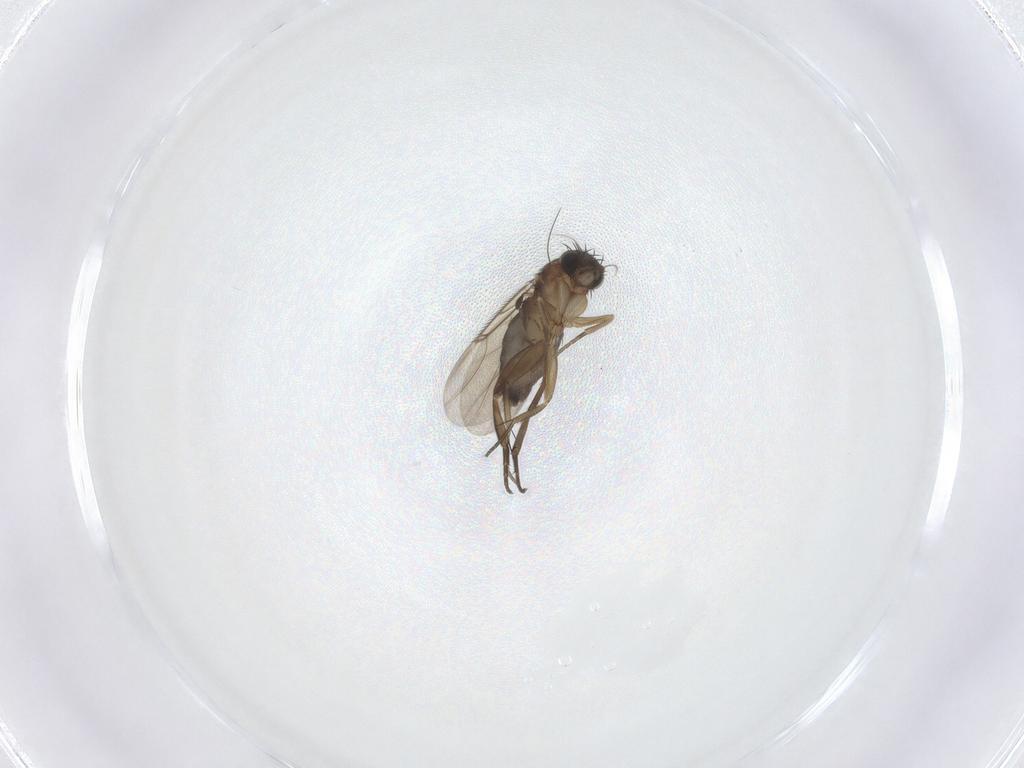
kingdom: Animalia
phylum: Arthropoda
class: Insecta
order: Diptera
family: Phoridae
